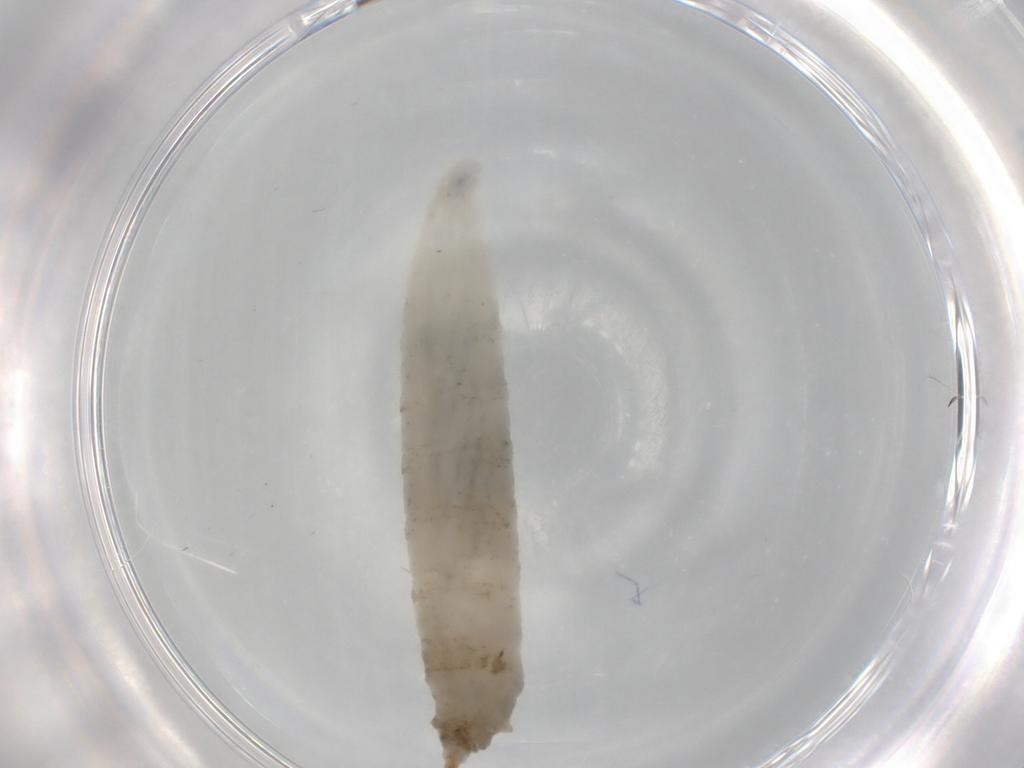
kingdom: Animalia
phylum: Arthropoda
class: Insecta
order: Diptera
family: Drosophilidae
